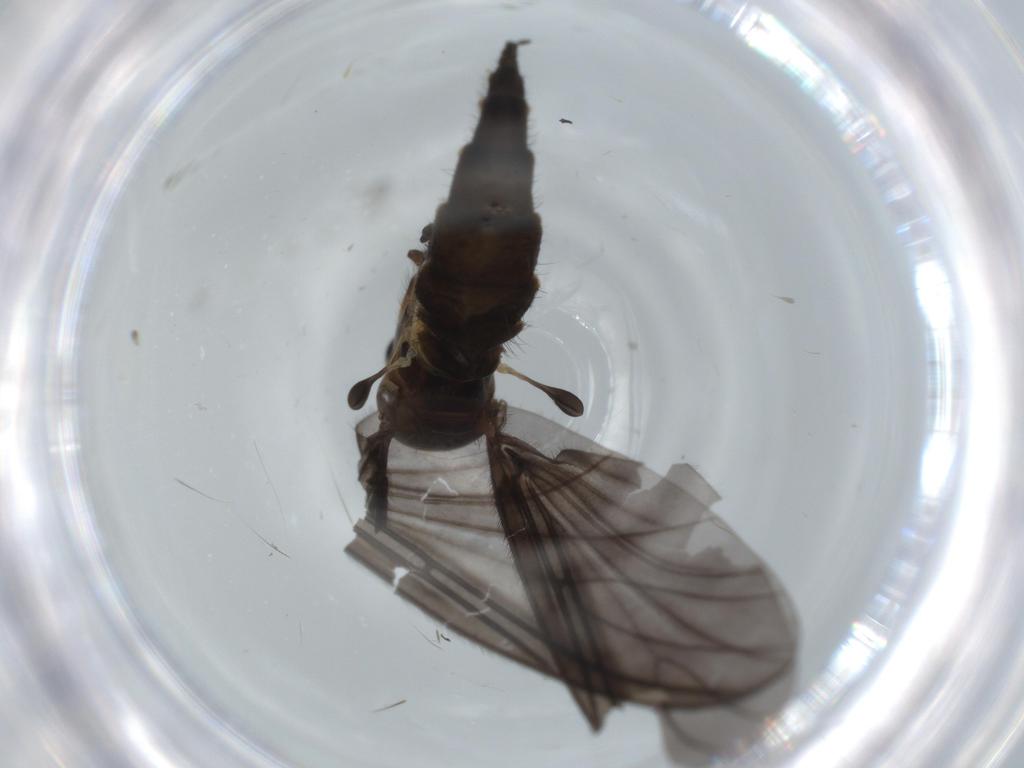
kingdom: Animalia
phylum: Arthropoda
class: Insecta
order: Diptera
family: Sciaridae
